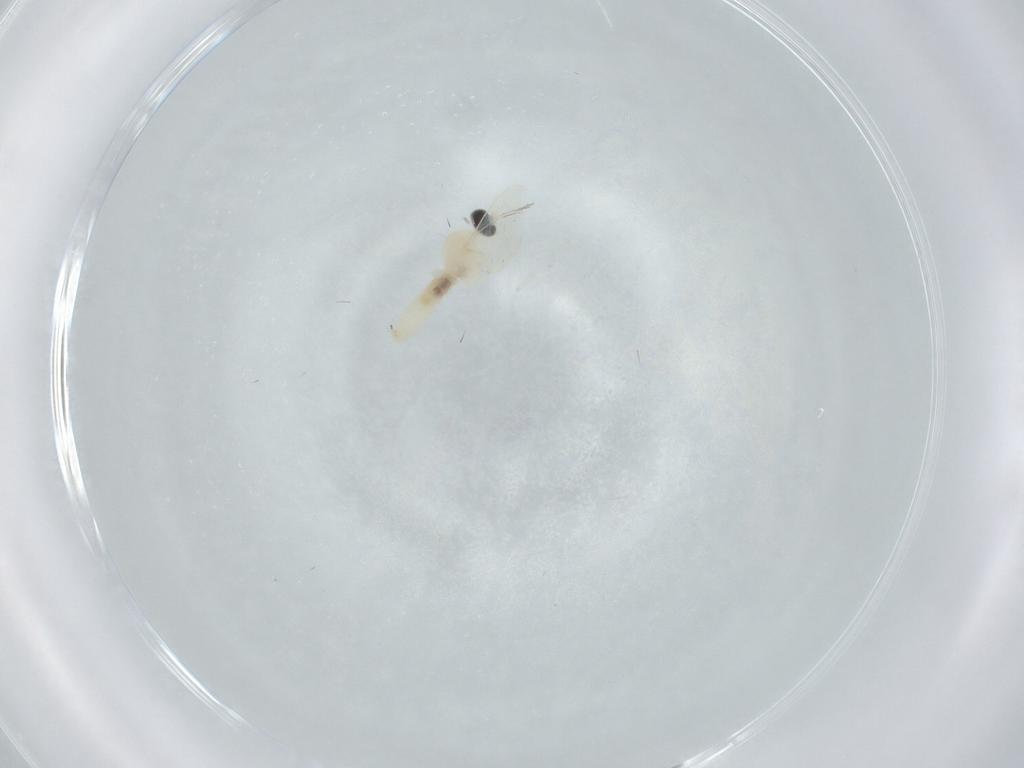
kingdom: Animalia
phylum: Arthropoda
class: Insecta
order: Diptera
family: Cecidomyiidae
